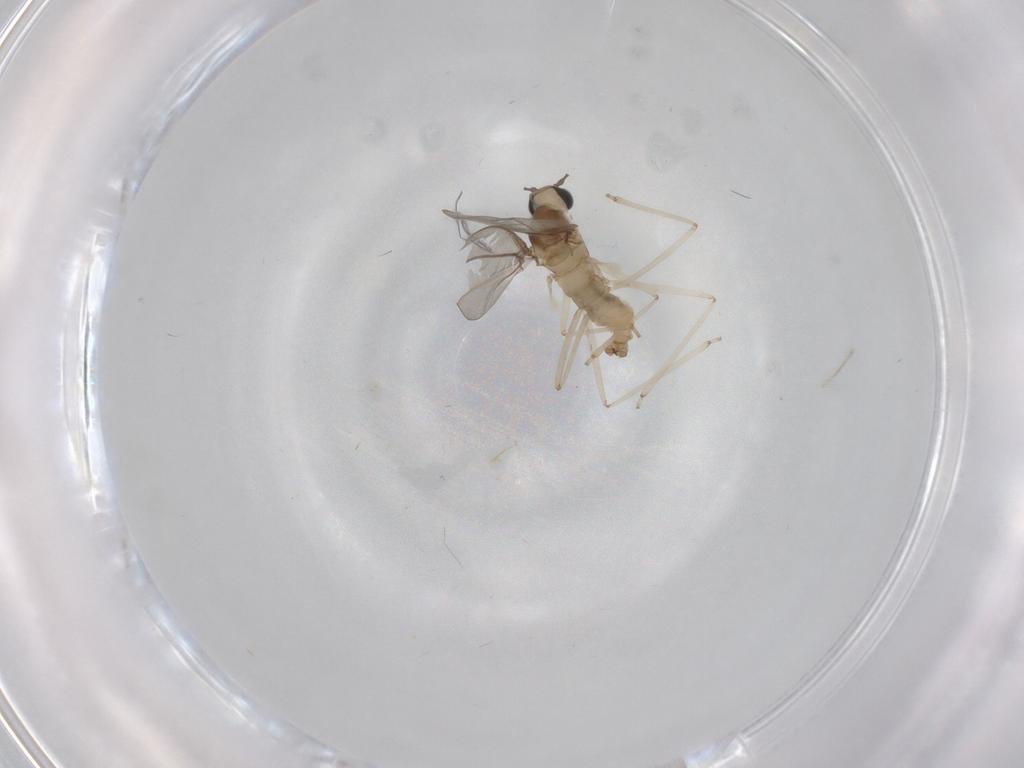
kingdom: Animalia
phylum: Arthropoda
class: Insecta
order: Diptera
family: Cecidomyiidae
